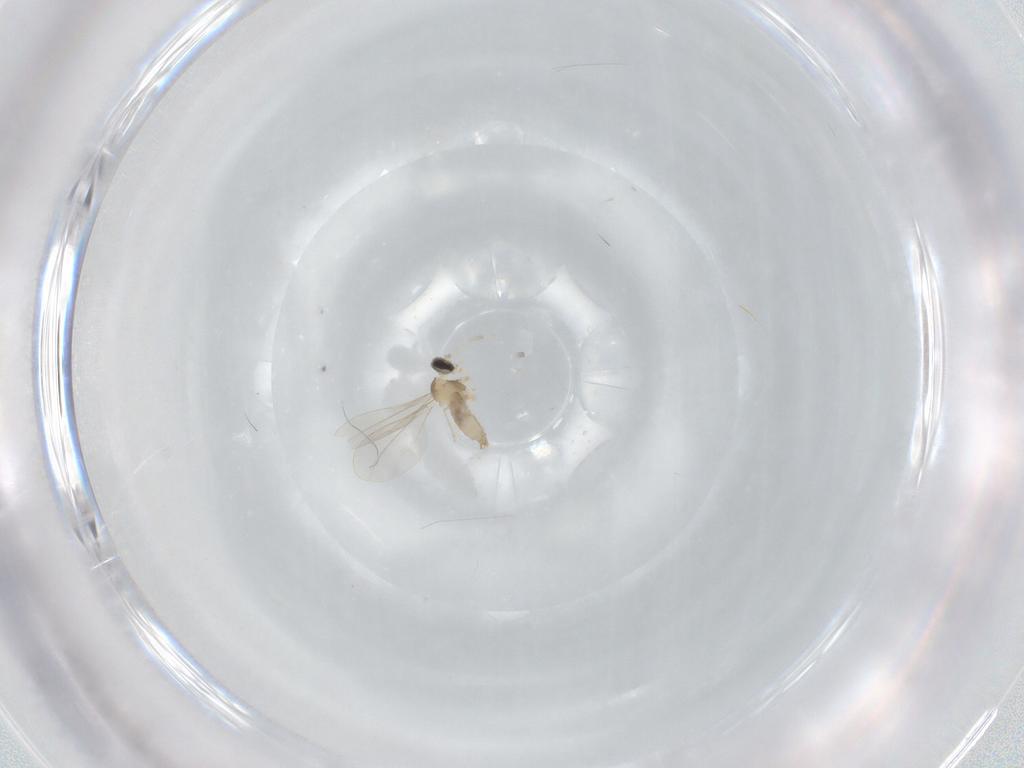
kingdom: Animalia
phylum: Arthropoda
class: Insecta
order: Diptera
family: Cecidomyiidae
